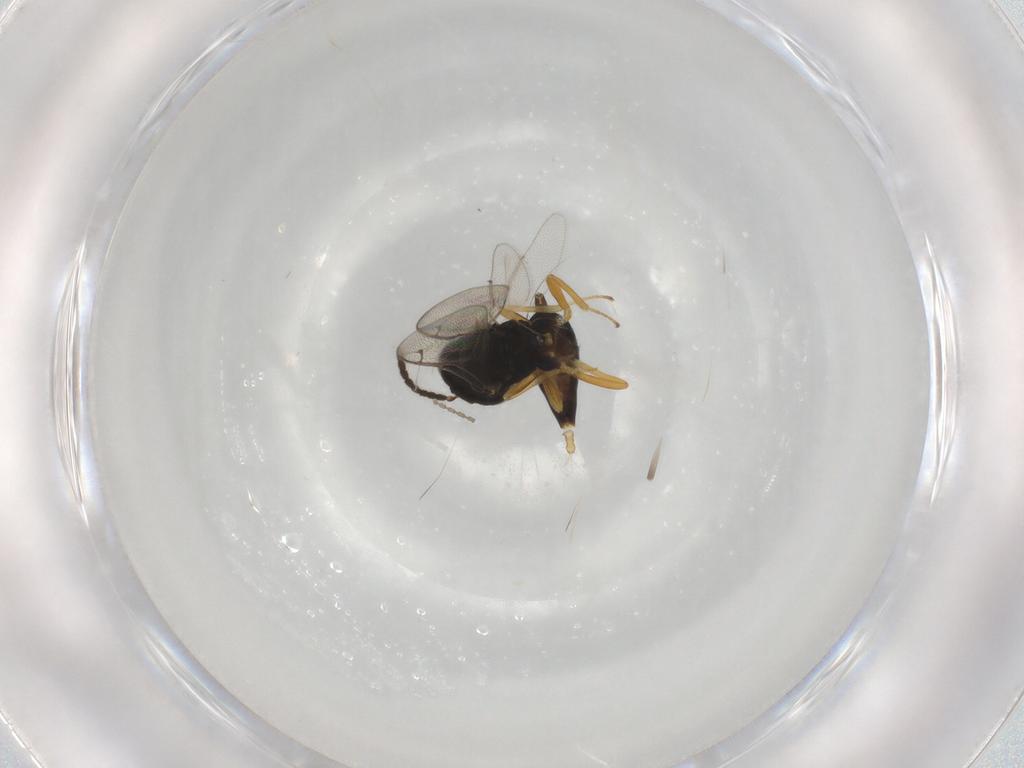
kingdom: Animalia
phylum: Arthropoda
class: Insecta
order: Hymenoptera
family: Pteromalidae
